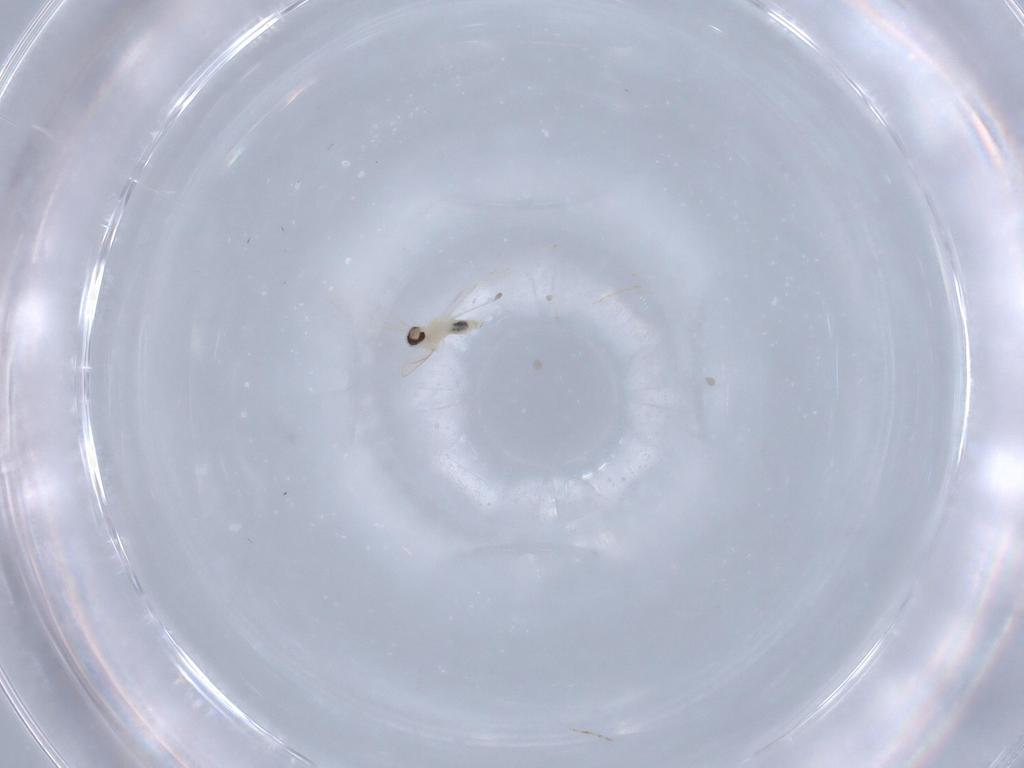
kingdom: Animalia
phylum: Arthropoda
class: Insecta
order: Diptera
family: Cecidomyiidae
